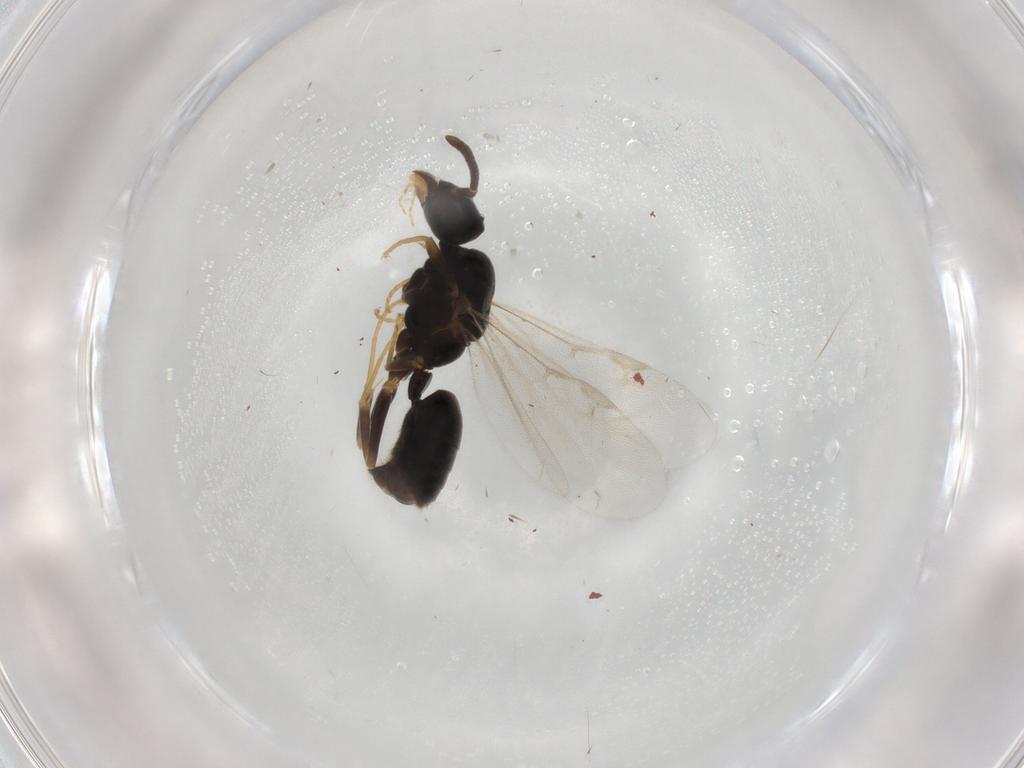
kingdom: Animalia
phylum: Arthropoda
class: Insecta
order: Hymenoptera
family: Formicidae
